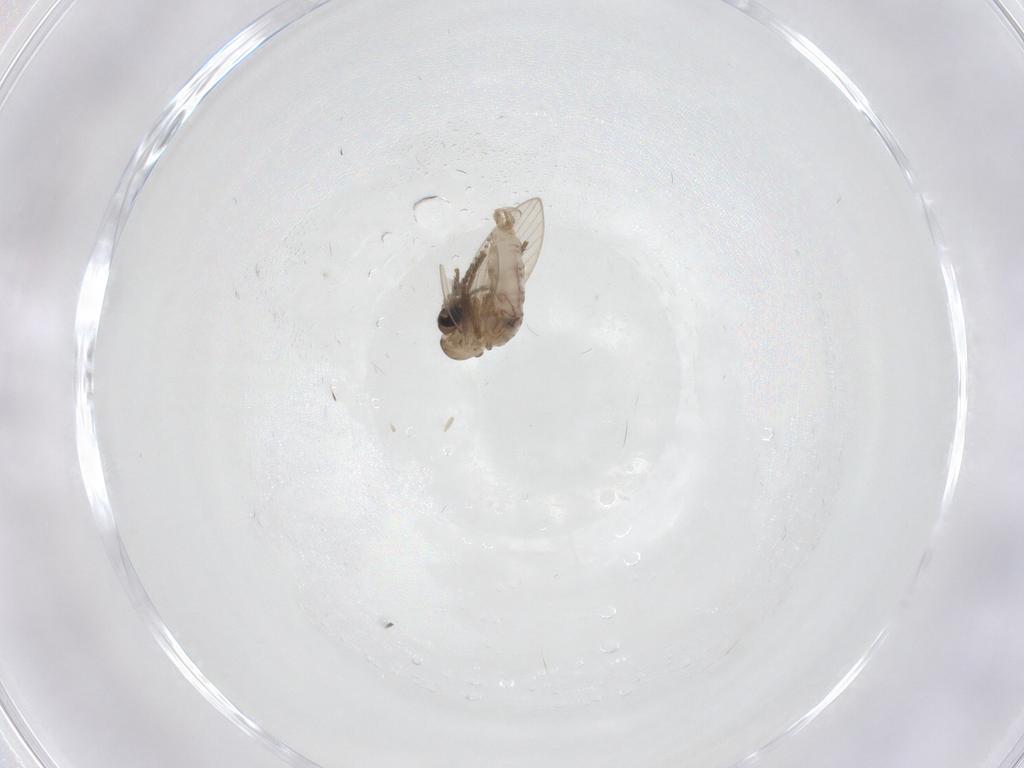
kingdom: Animalia
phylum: Arthropoda
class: Insecta
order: Diptera
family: Psychodidae
